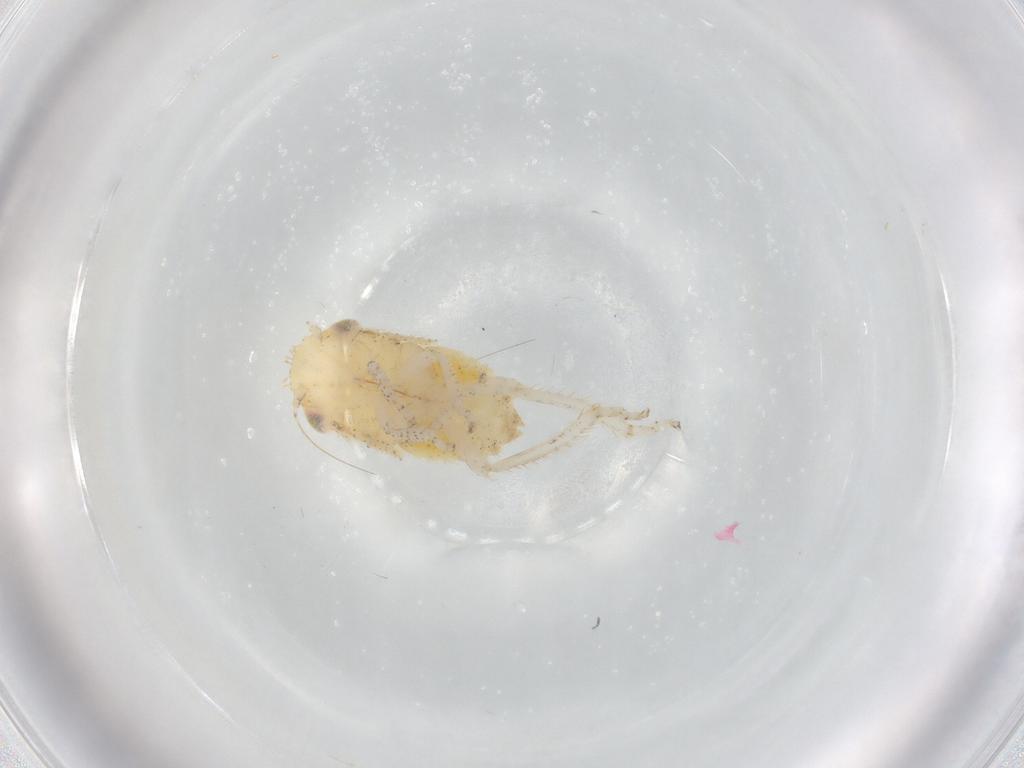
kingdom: Animalia
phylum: Arthropoda
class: Insecta
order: Hemiptera
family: Cicadellidae
